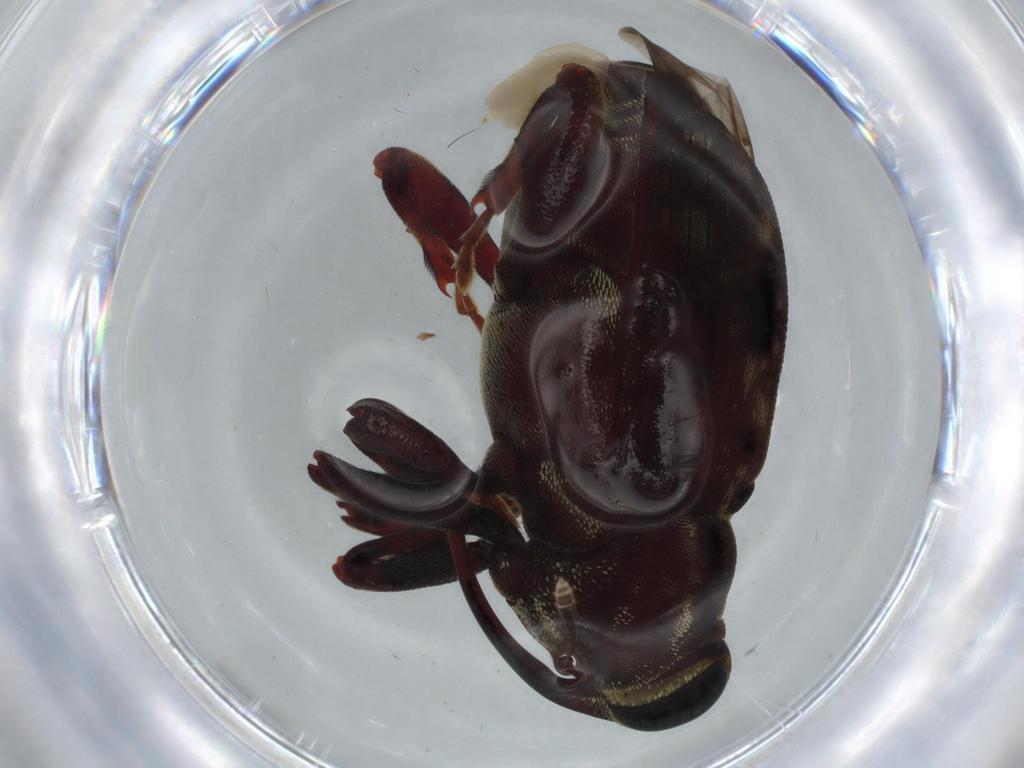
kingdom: Animalia
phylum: Arthropoda
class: Insecta
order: Coleoptera
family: Curculionidae
